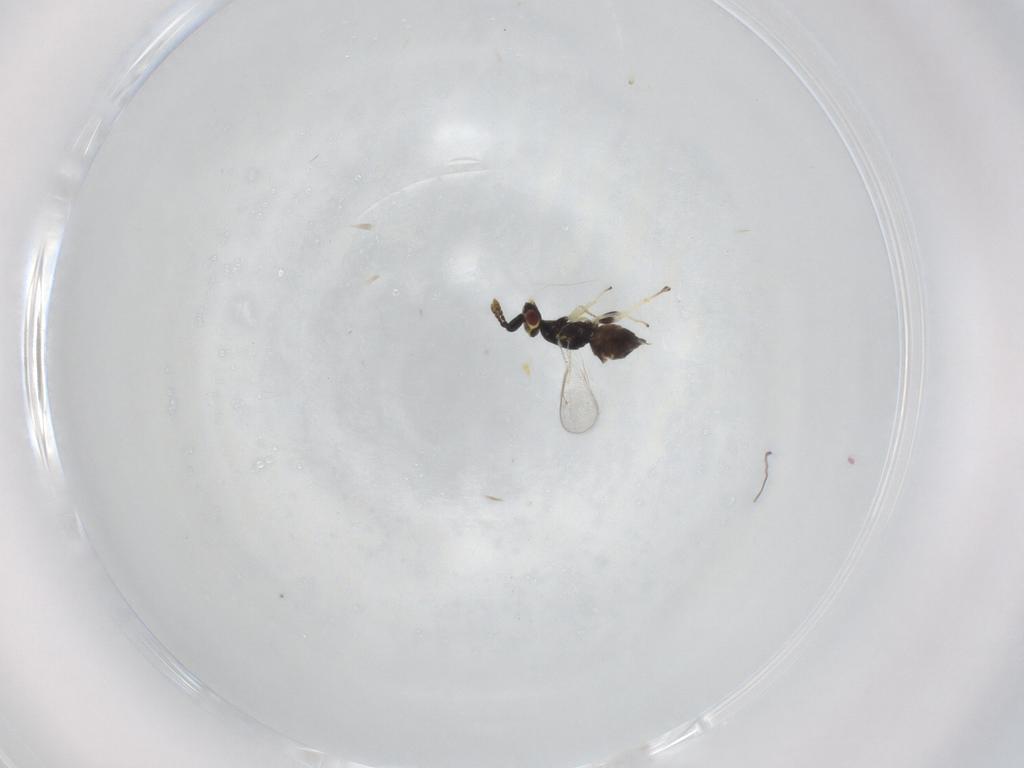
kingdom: Animalia
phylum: Arthropoda
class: Insecta
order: Hymenoptera
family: Eulophidae
